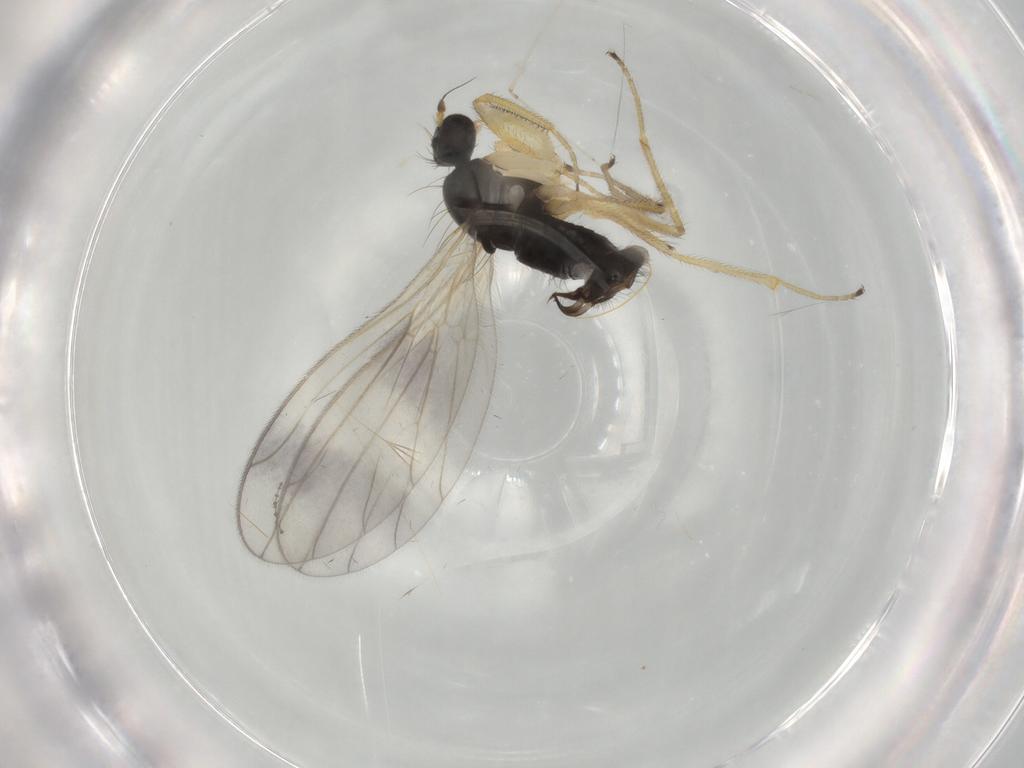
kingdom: Animalia
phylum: Arthropoda
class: Insecta
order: Diptera
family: Empididae
